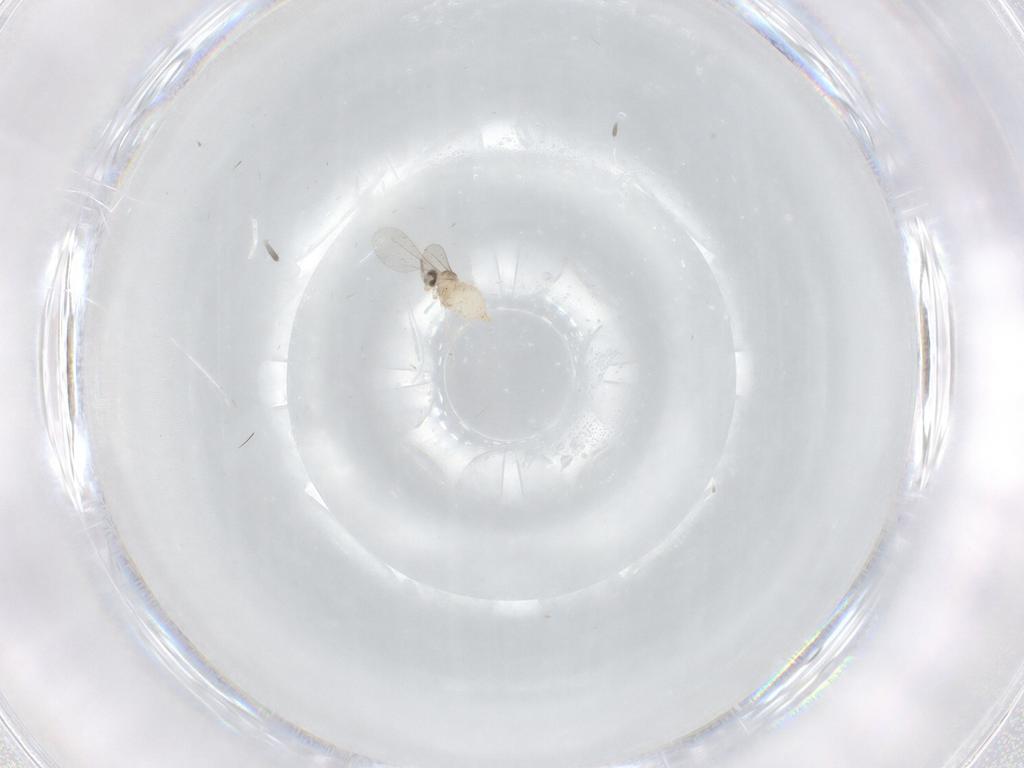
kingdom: Animalia
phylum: Arthropoda
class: Insecta
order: Diptera
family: Cecidomyiidae
